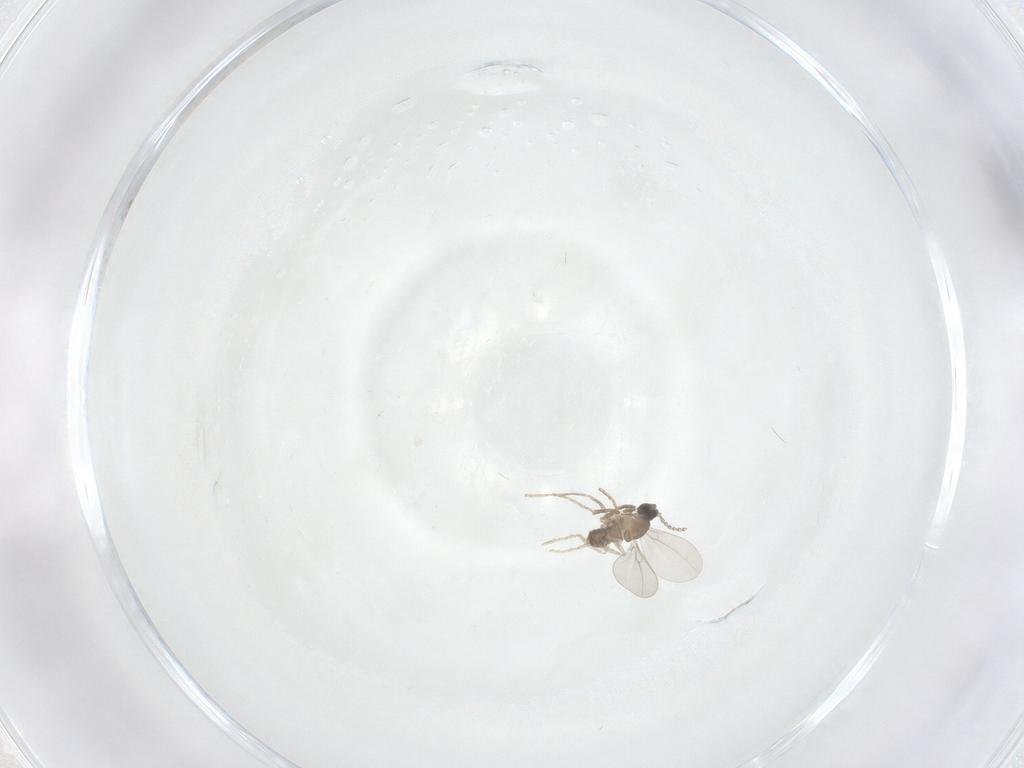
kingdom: Animalia
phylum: Arthropoda
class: Insecta
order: Diptera
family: Cecidomyiidae
